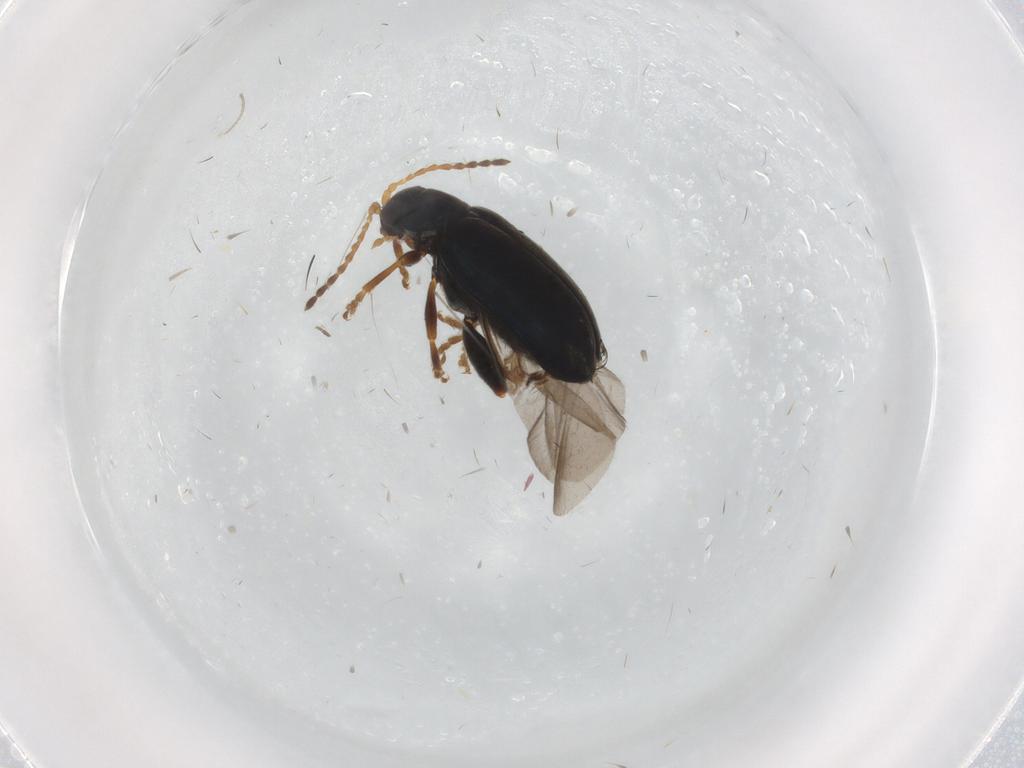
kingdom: Animalia
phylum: Arthropoda
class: Insecta
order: Coleoptera
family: Chrysomelidae
